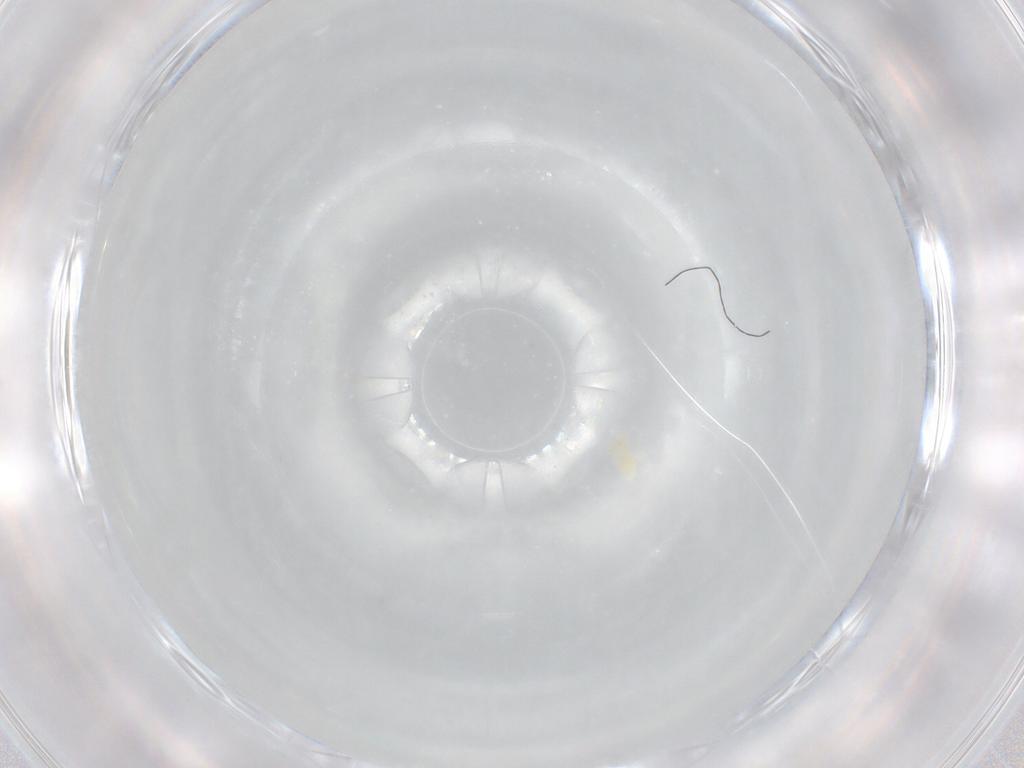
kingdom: Animalia
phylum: Arthropoda
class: Arachnida
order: Trombidiformes
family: Eupodidae
